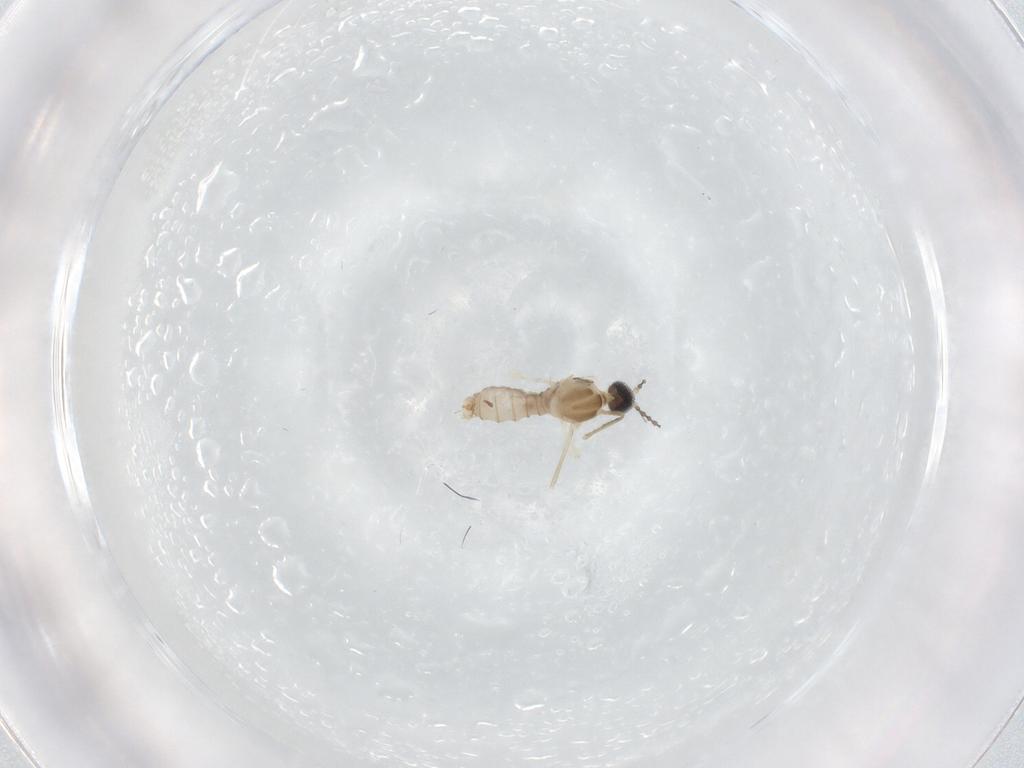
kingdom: Animalia
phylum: Arthropoda
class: Insecta
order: Diptera
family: Cecidomyiidae
